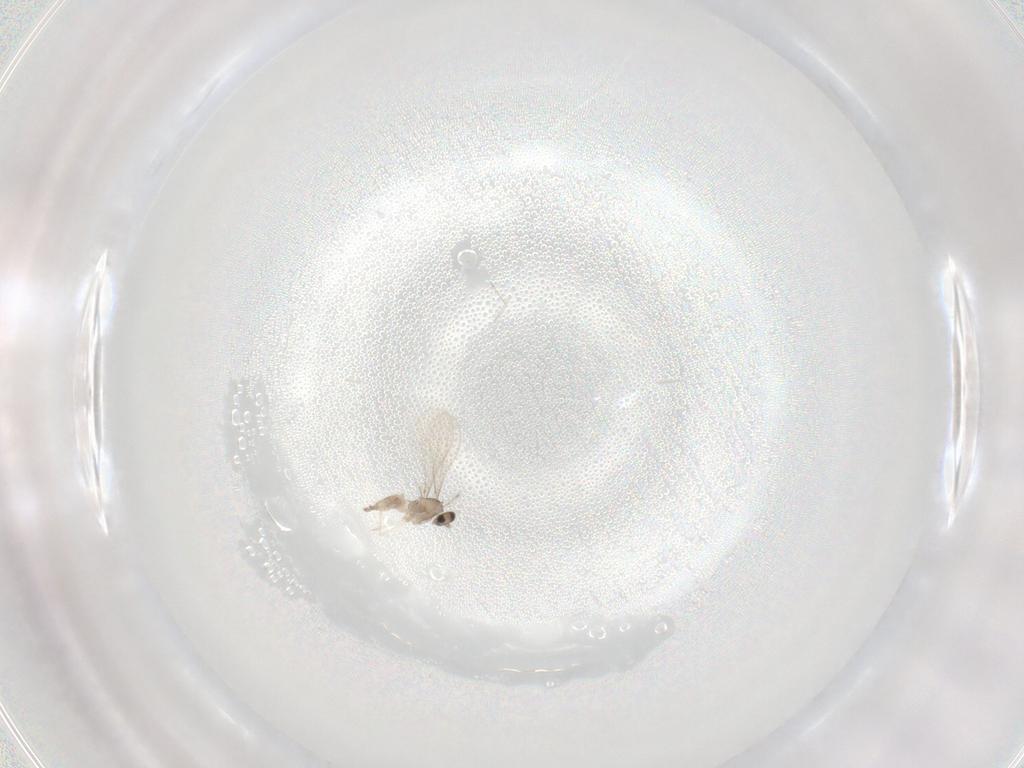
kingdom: Animalia
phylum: Arthropoda
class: Insecta
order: Diptera
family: Cecidomyiidae
